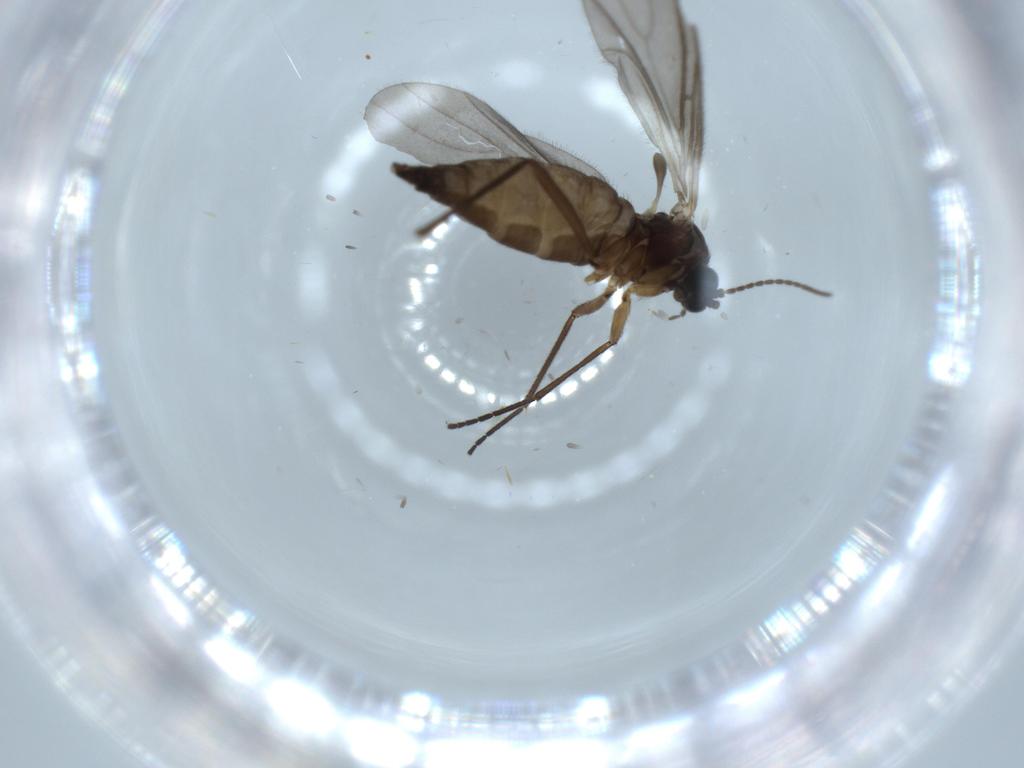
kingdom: Animalia
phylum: Arthropoda
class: Insecta
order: Diptera
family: Sciaridae
